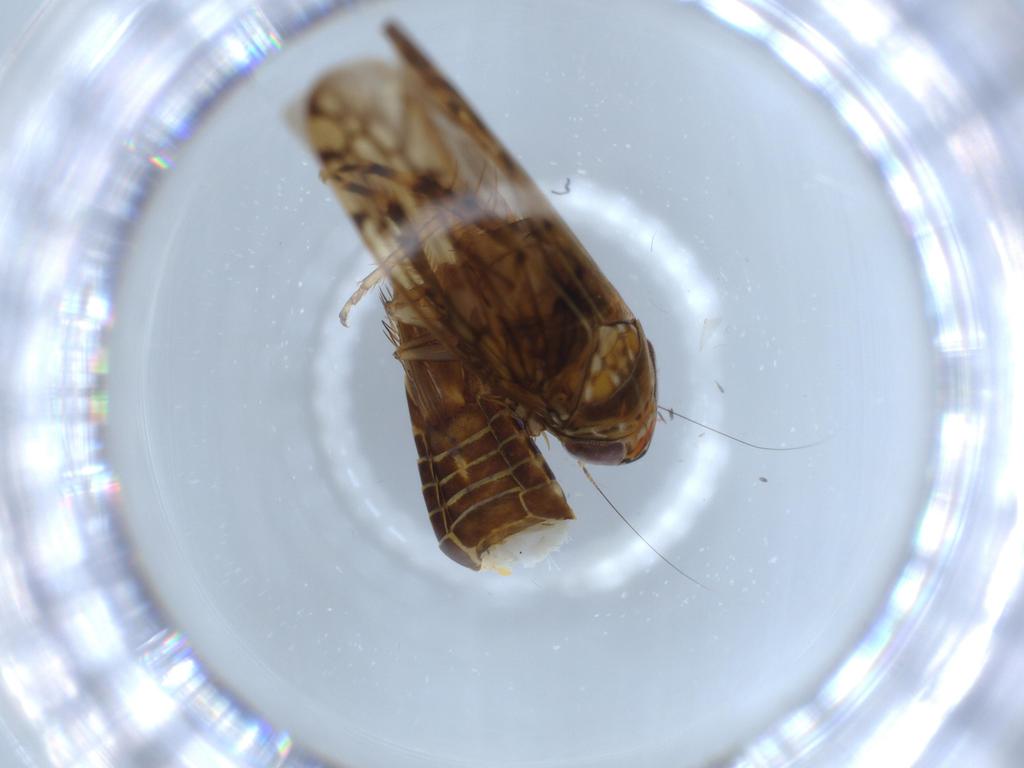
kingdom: Animalia
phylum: Arthropoda
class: Insecta
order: Hemiptera
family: Cicadellidae
